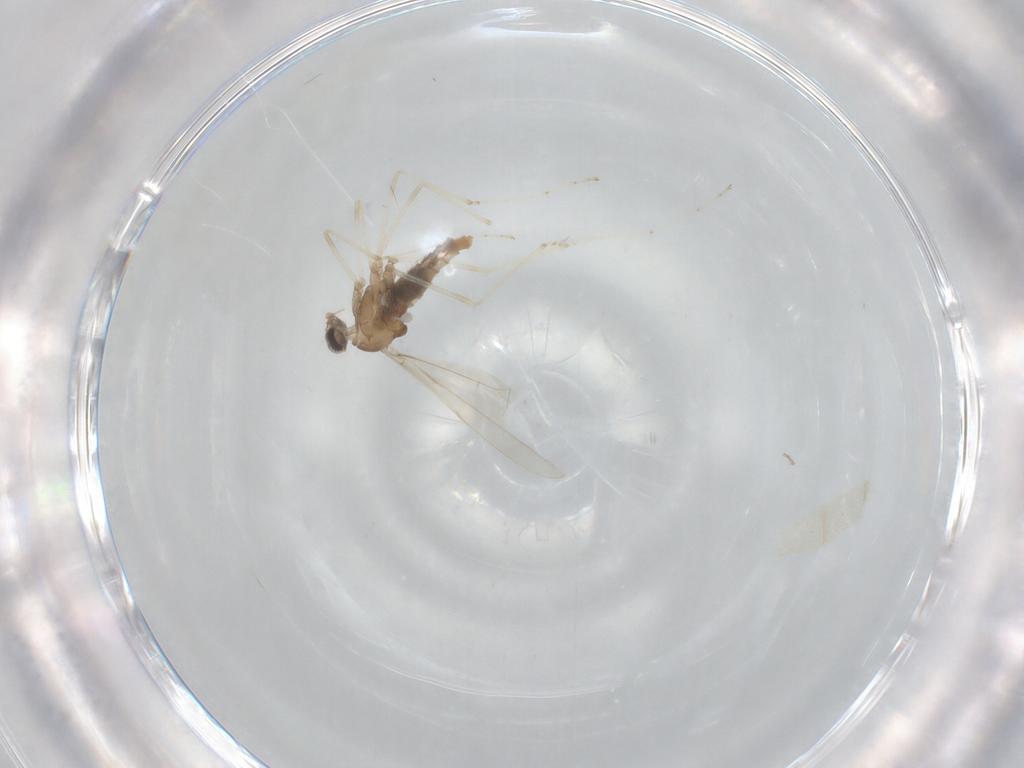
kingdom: Animalia
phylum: Arthropoda
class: Insecta
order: Diptera
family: Cecidomyiidae
